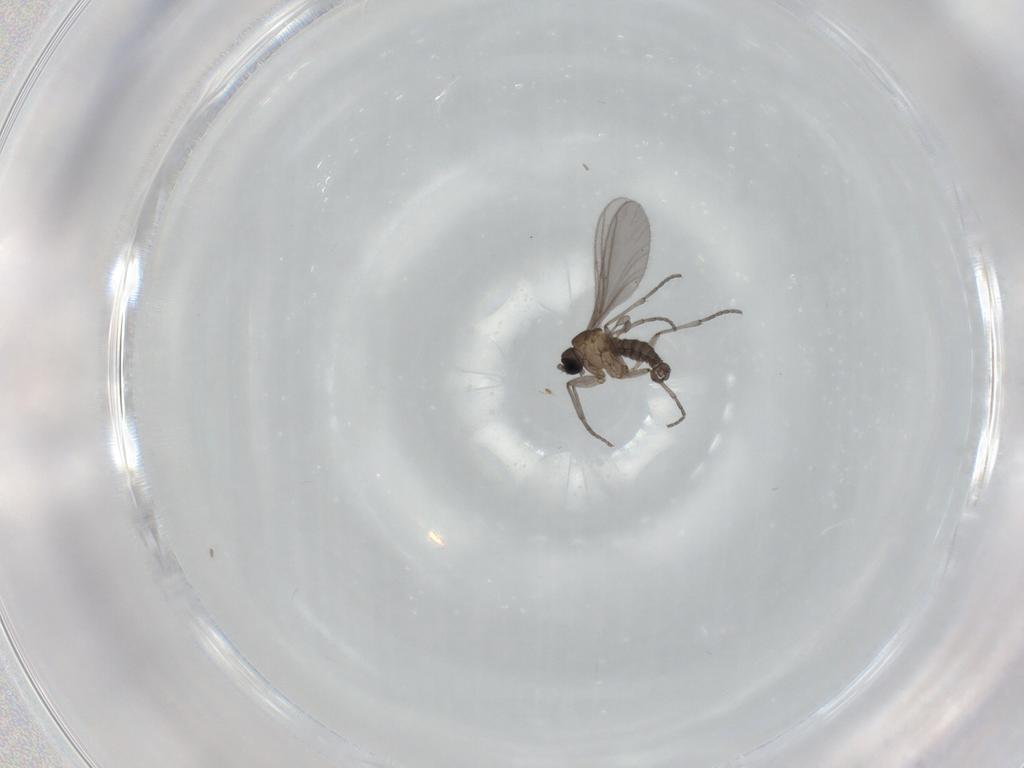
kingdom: Animalia
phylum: Arthropoda
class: Insecta
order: Diptera
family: Sciaridae
